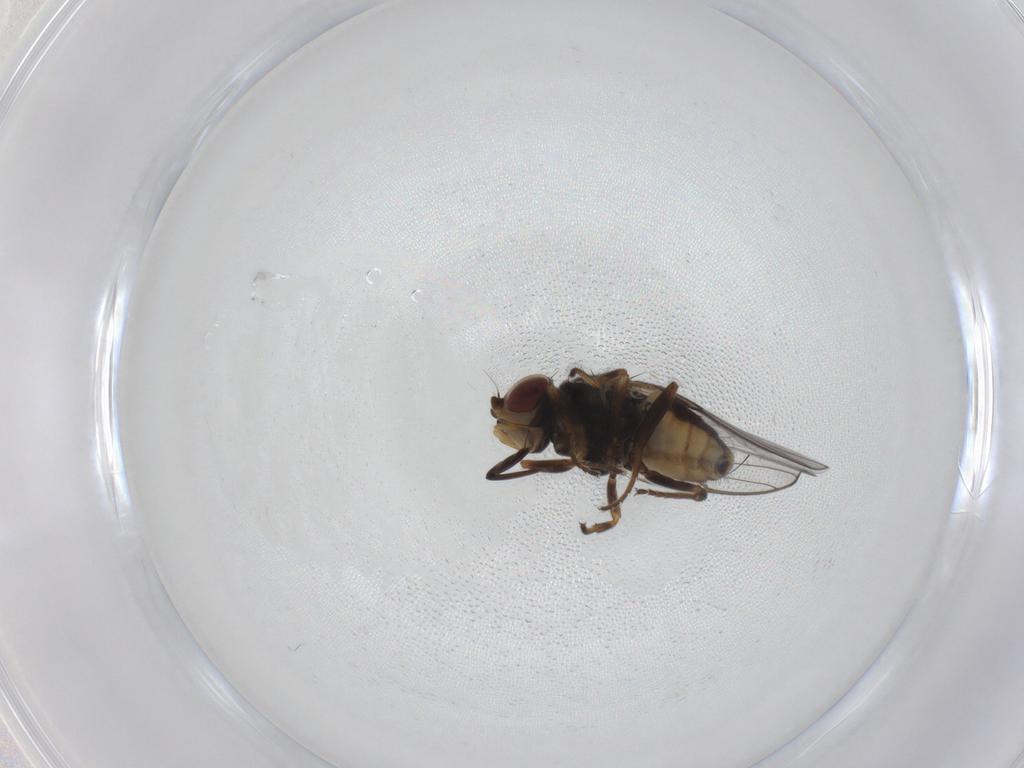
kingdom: Animalia
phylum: Arthropoda
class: Insecta
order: Diptera
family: Chloropidae
